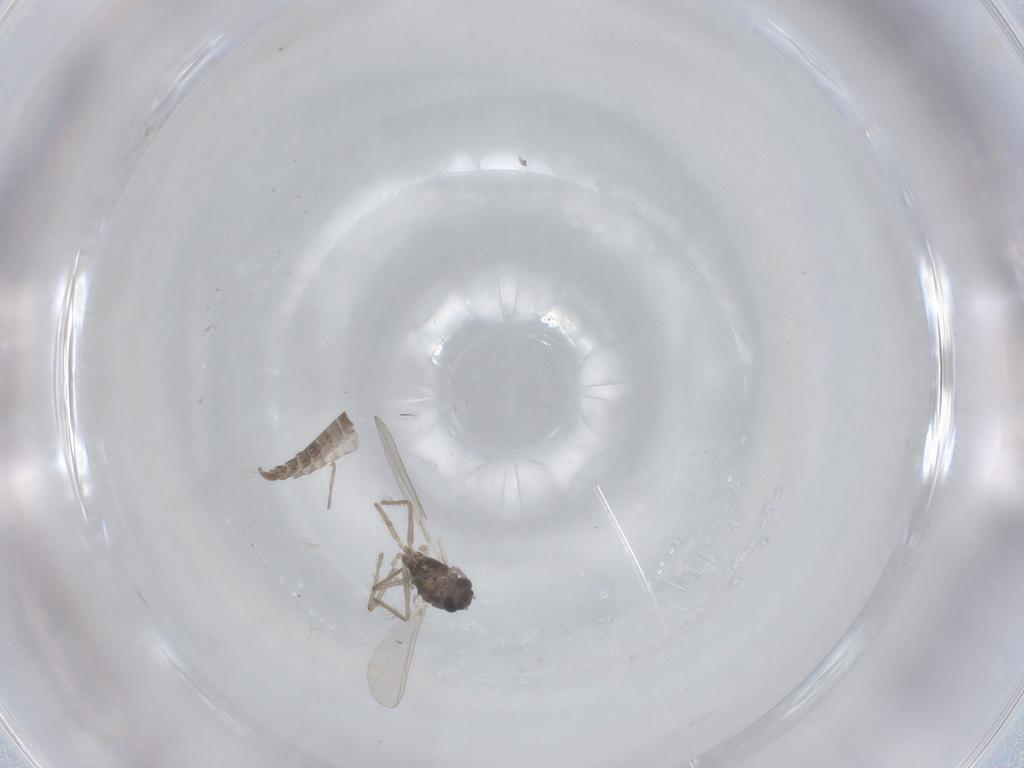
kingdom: Animalia
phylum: Arthropoda
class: Insecta
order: Diptera
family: Chironomidae
